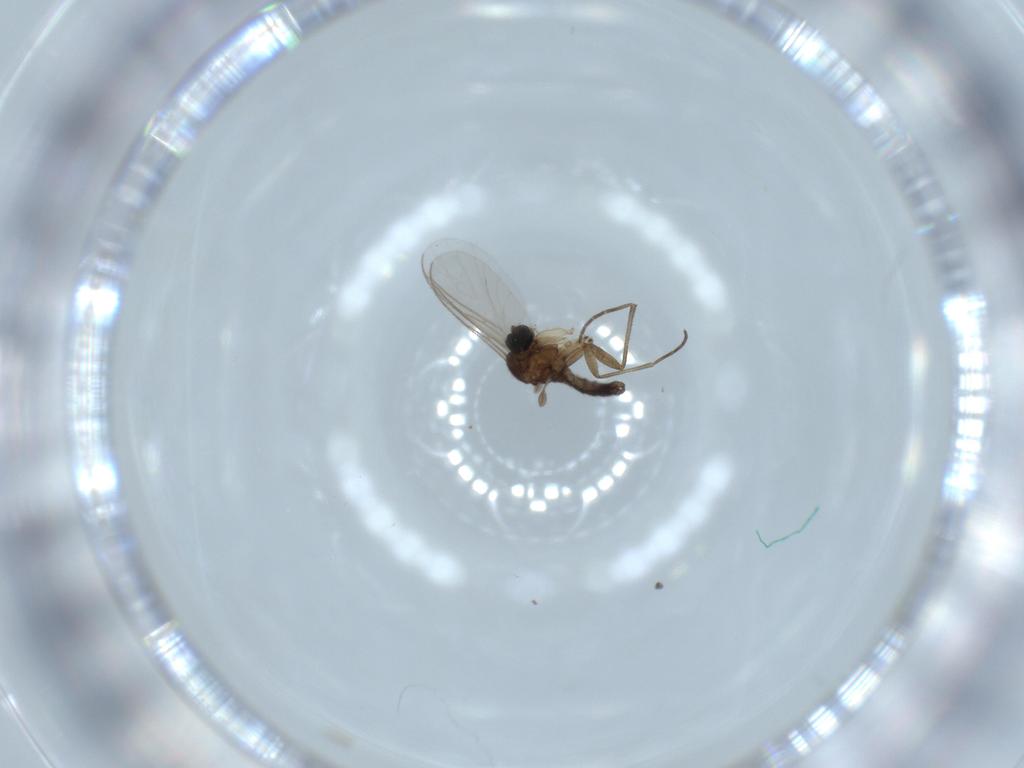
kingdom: Animalia
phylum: Arthropoda
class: Insecta
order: Diptera
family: Sciaridae
